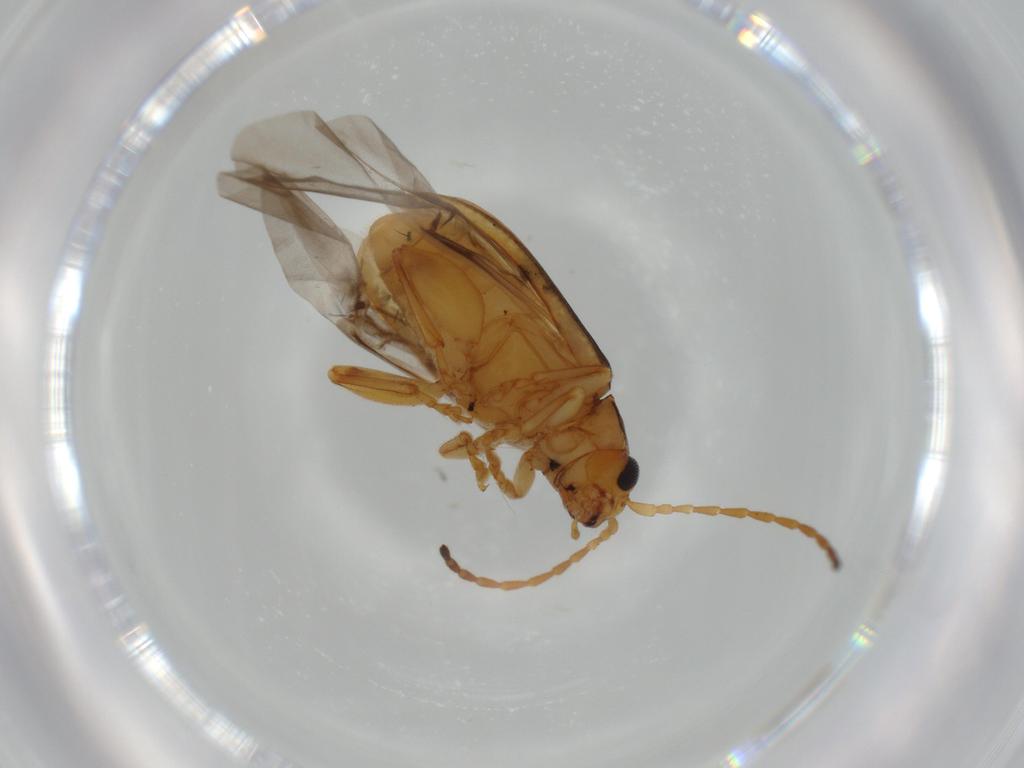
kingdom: Animalia
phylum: Arthropoda
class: Insecta
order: Coleoptera
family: Chrysomelidae
